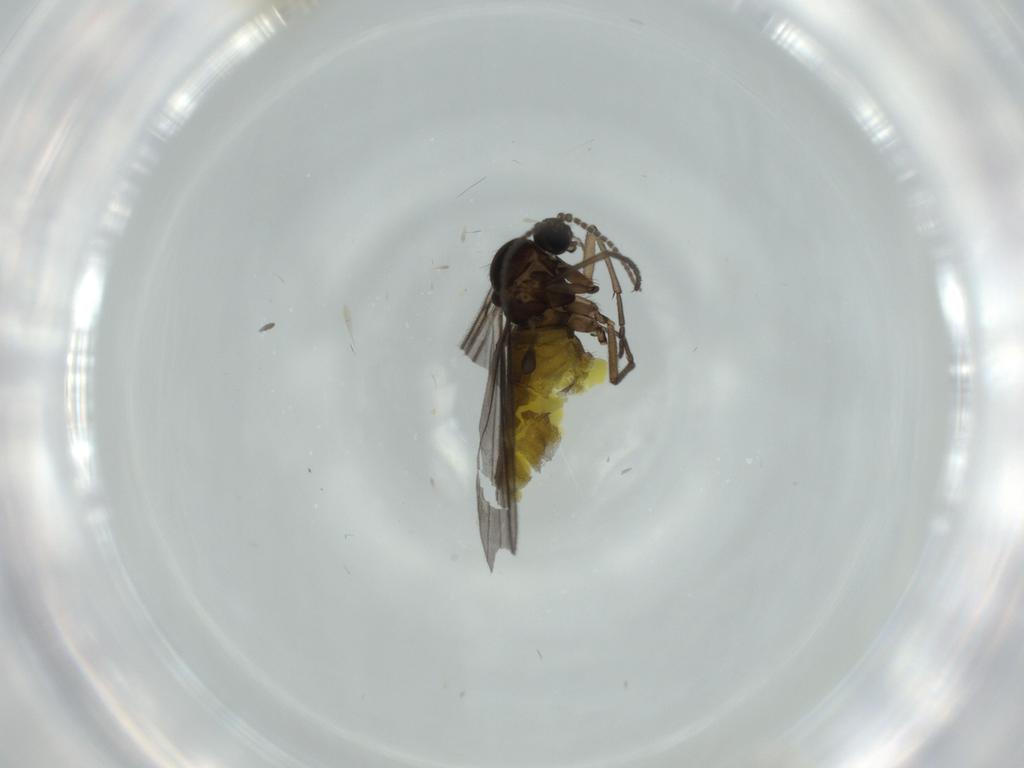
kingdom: Animalia
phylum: Arthropoda
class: Insecta
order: Diptera
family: Sciaridae
